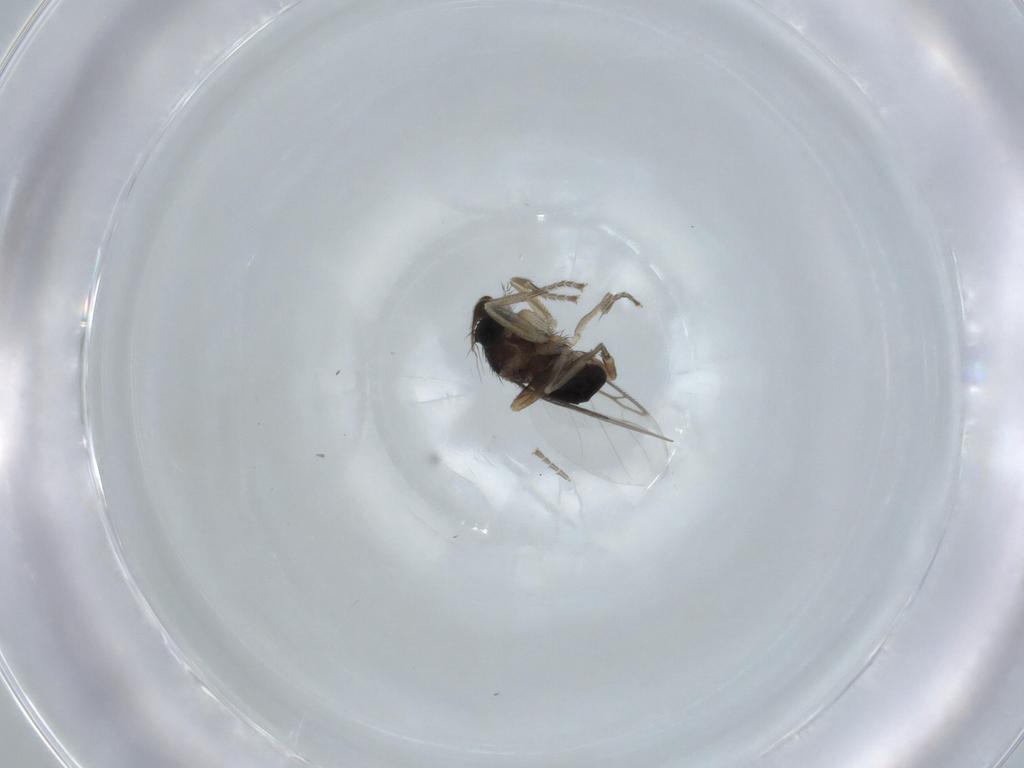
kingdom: Animalia
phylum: Arthropoda
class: Insecta
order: Diptera
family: Phoridae
